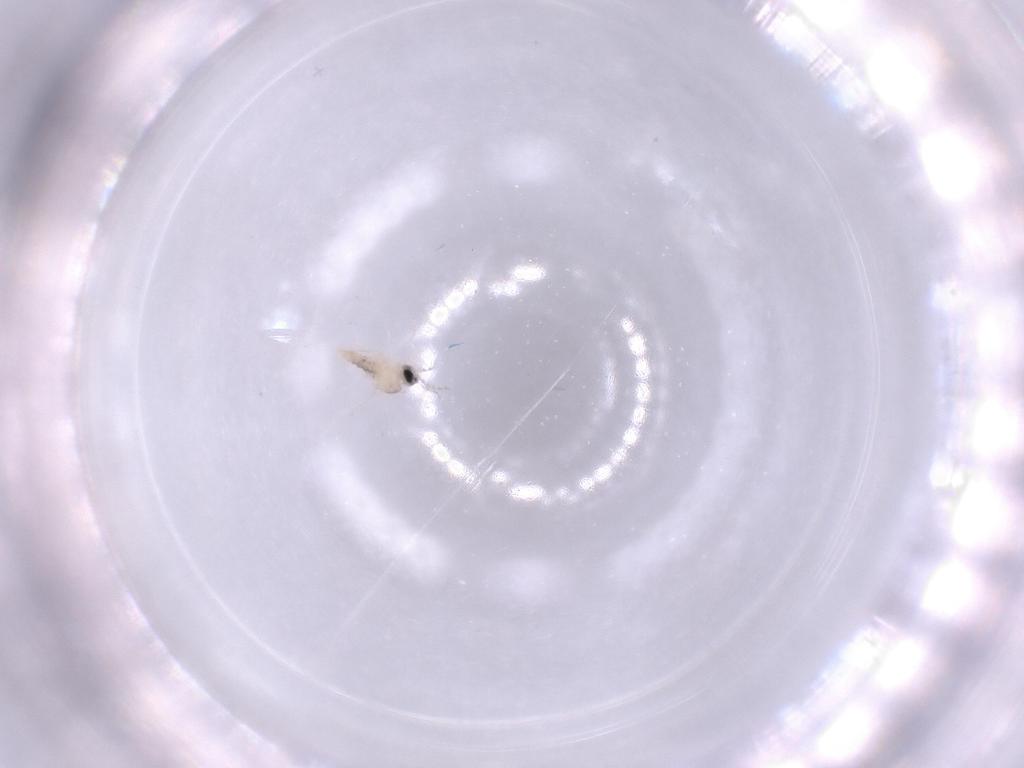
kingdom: Animalia
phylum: Arthropoda
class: Insecta
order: Diptera
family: Cecidomyiidae
